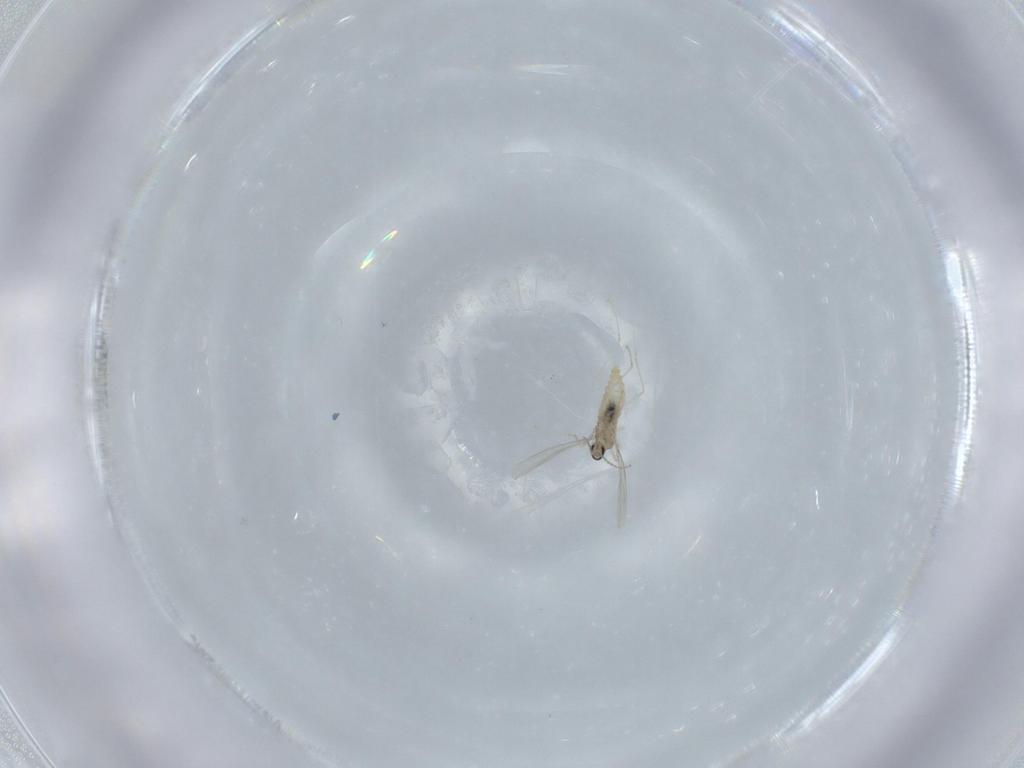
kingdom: Animalia
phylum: Arthropoda
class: Insecta
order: Diptera
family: Cecidomyiidae
